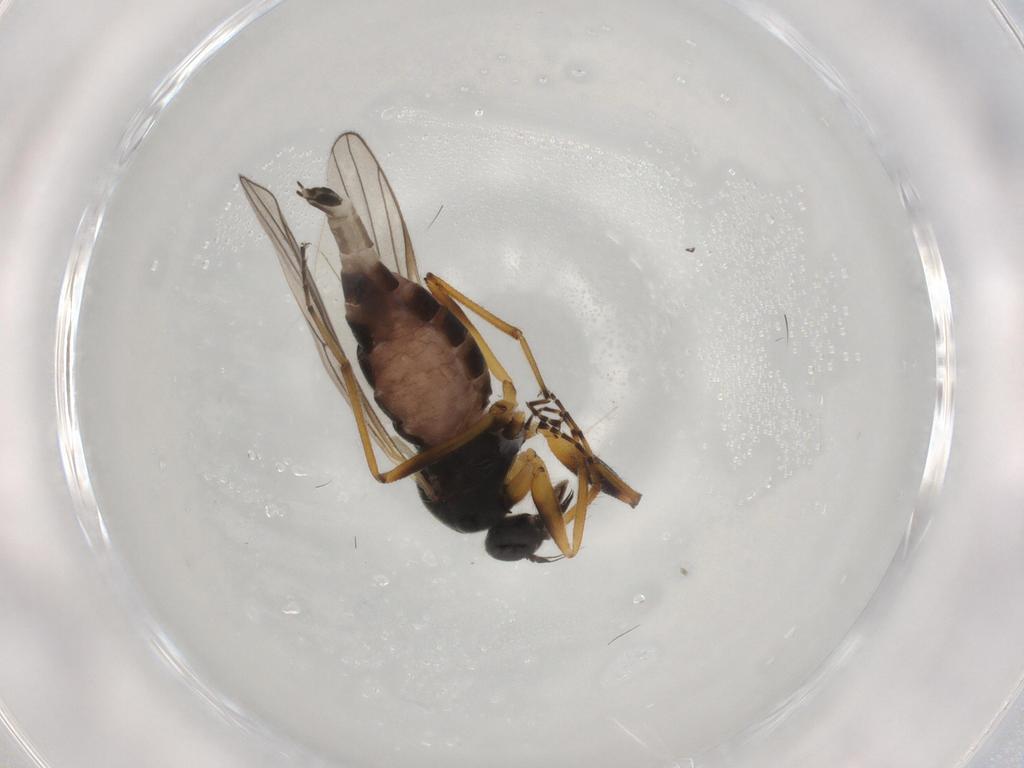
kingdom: Animalia
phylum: Arthropoda
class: Insecta
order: Diptera
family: Hybotidae
